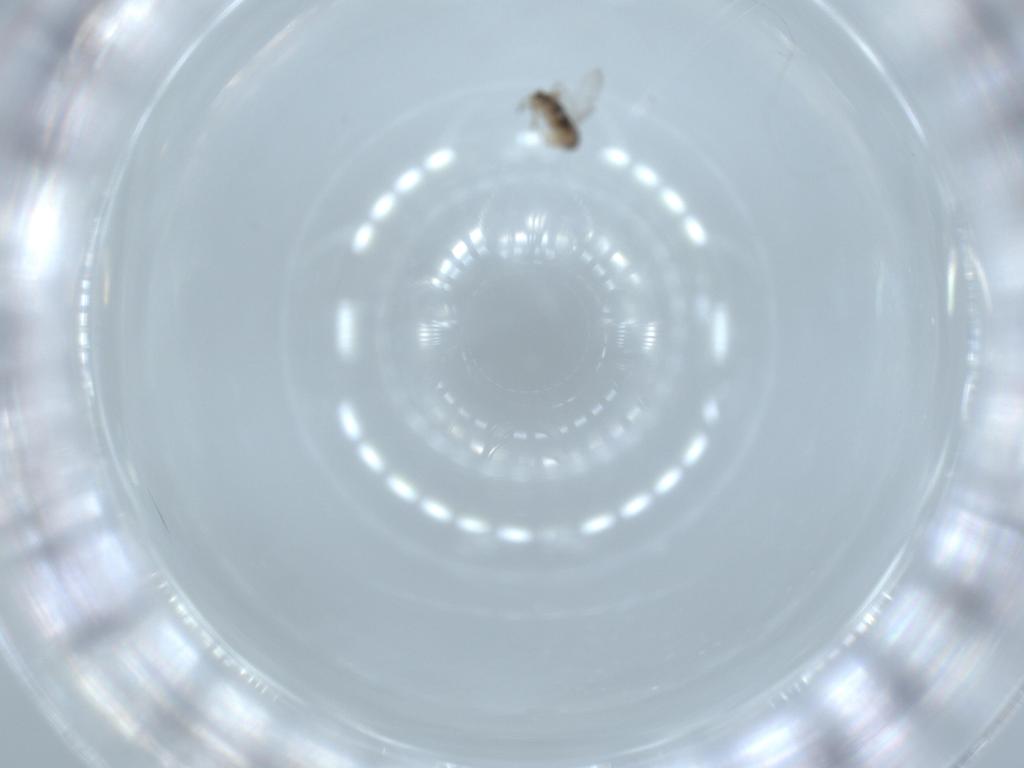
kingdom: Animalia
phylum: Arthropoda
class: Insecta
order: Diptera
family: Phoridae
